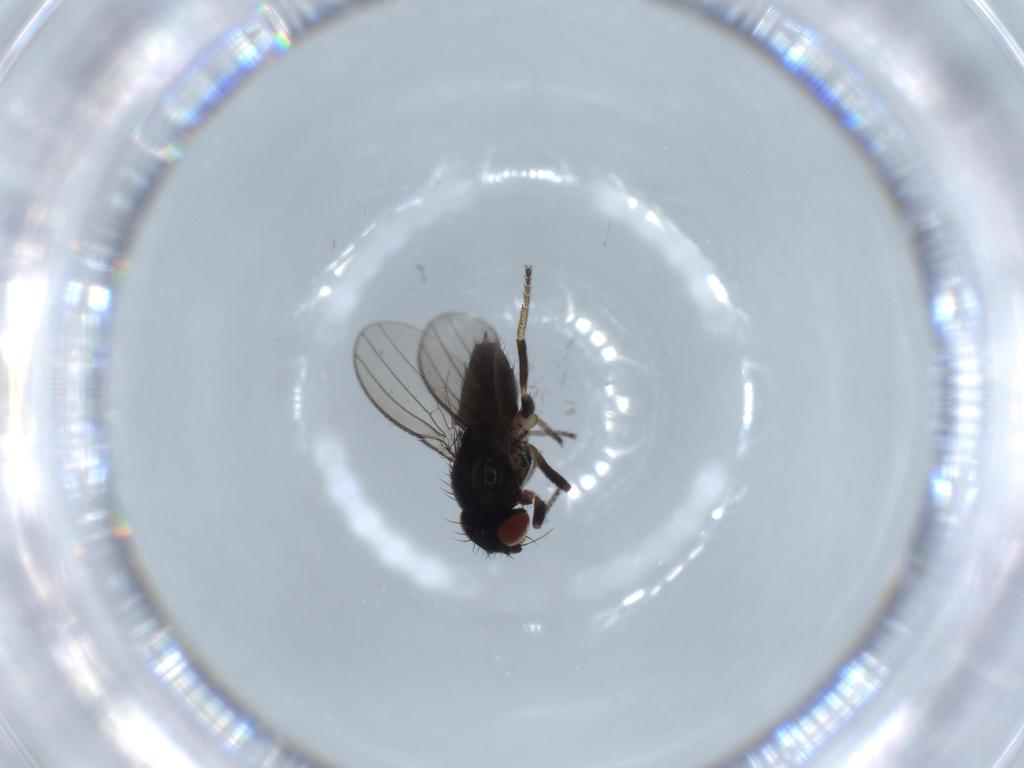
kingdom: Animalia
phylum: Arthropoda
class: Insecta
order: Diptera
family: Milichiidae
